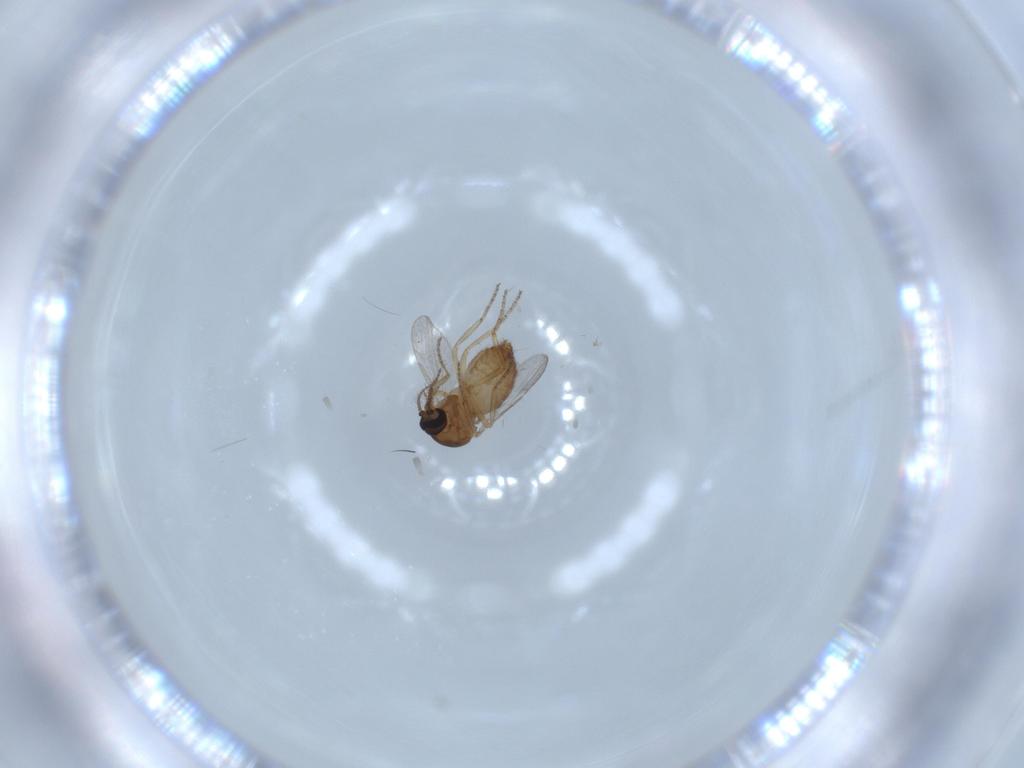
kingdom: Animalia
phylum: Arthropoda
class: Insecta
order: Diptera
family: Ceratopogonidae
